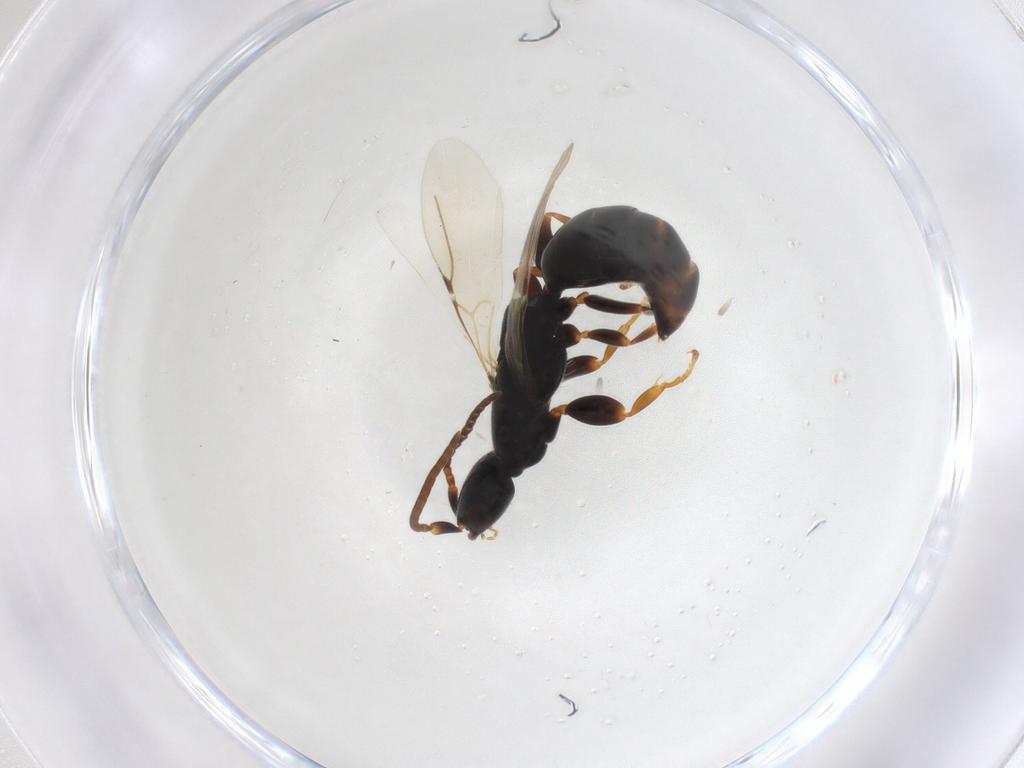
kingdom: Animalia
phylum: Arthropoda
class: Insecta
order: Hymenoptera
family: Bethylidae
